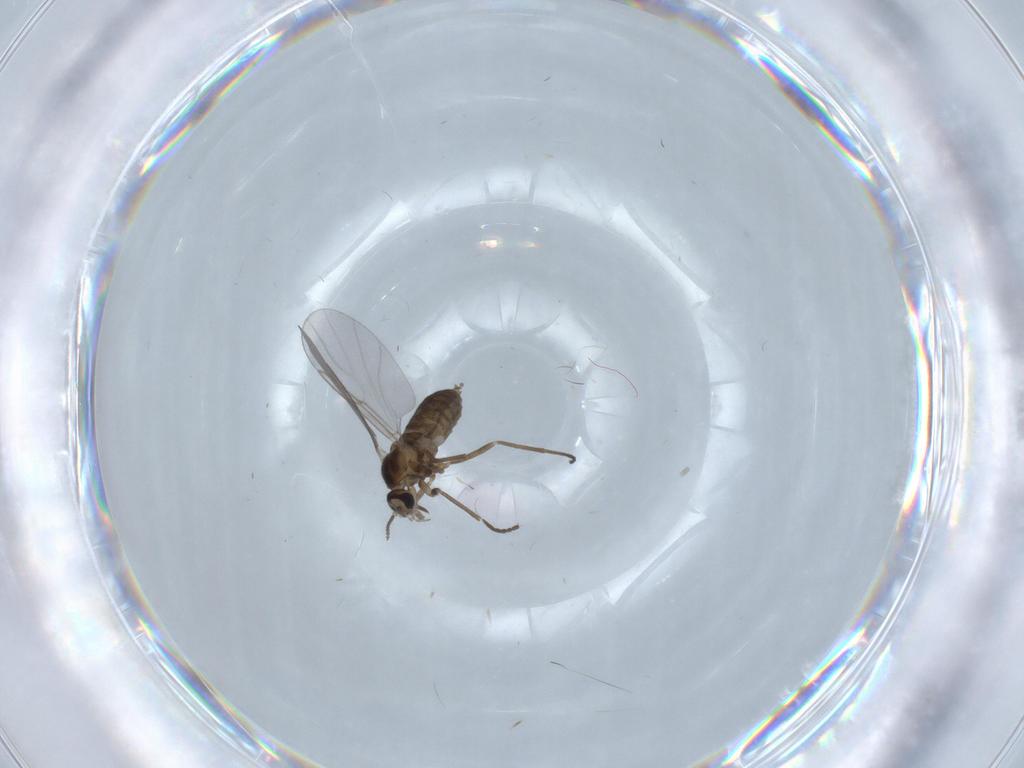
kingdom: Animalia
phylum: Arthropoda
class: Insecta
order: Diptera
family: Cecidomyiidae
